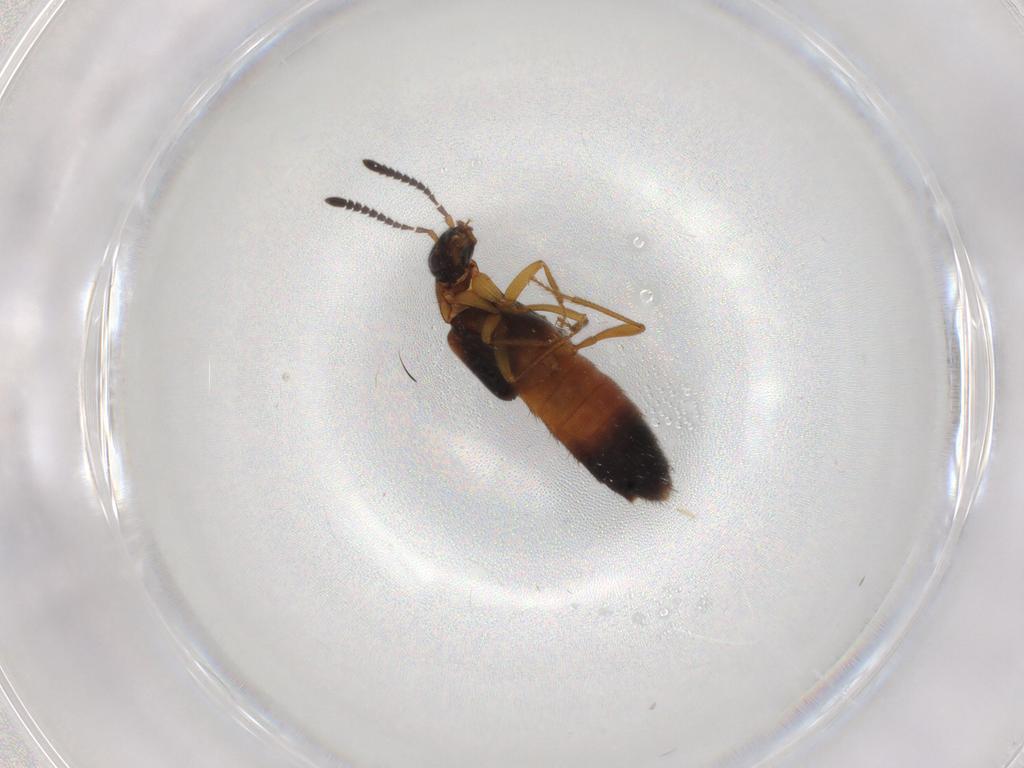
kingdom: Animalia
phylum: Arthropoda
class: Insecta
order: Coleoptera
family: Staphylinidae
